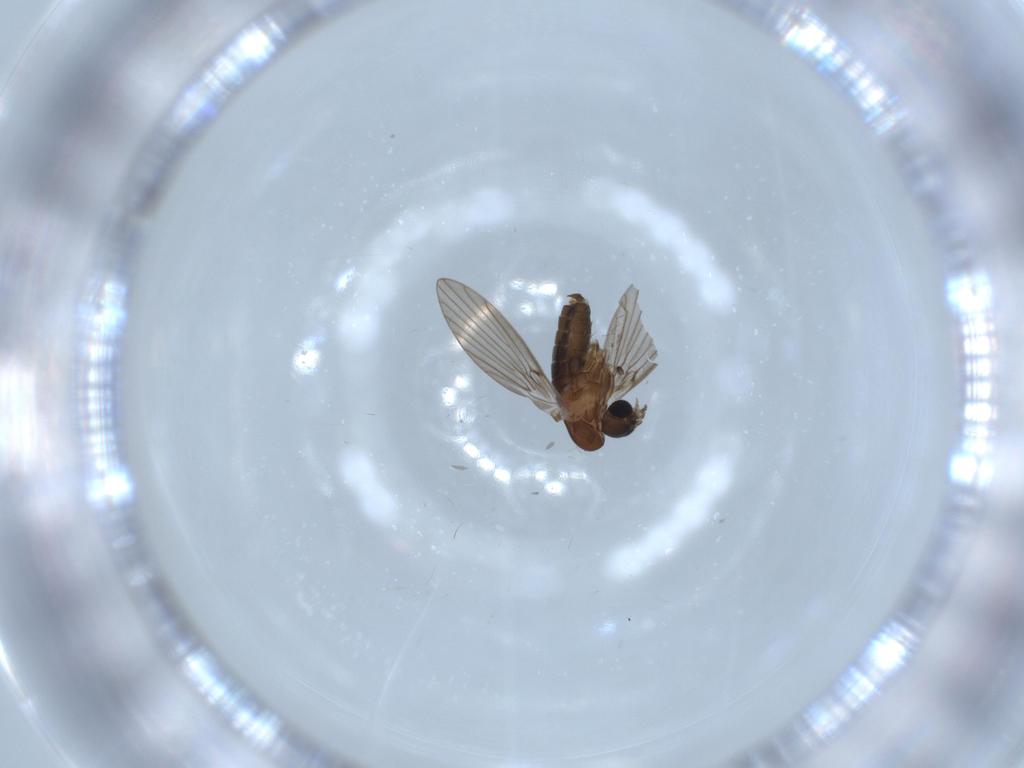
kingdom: Animalia
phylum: Arthropoda
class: Insecta
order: Diptera
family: Psychodidae
